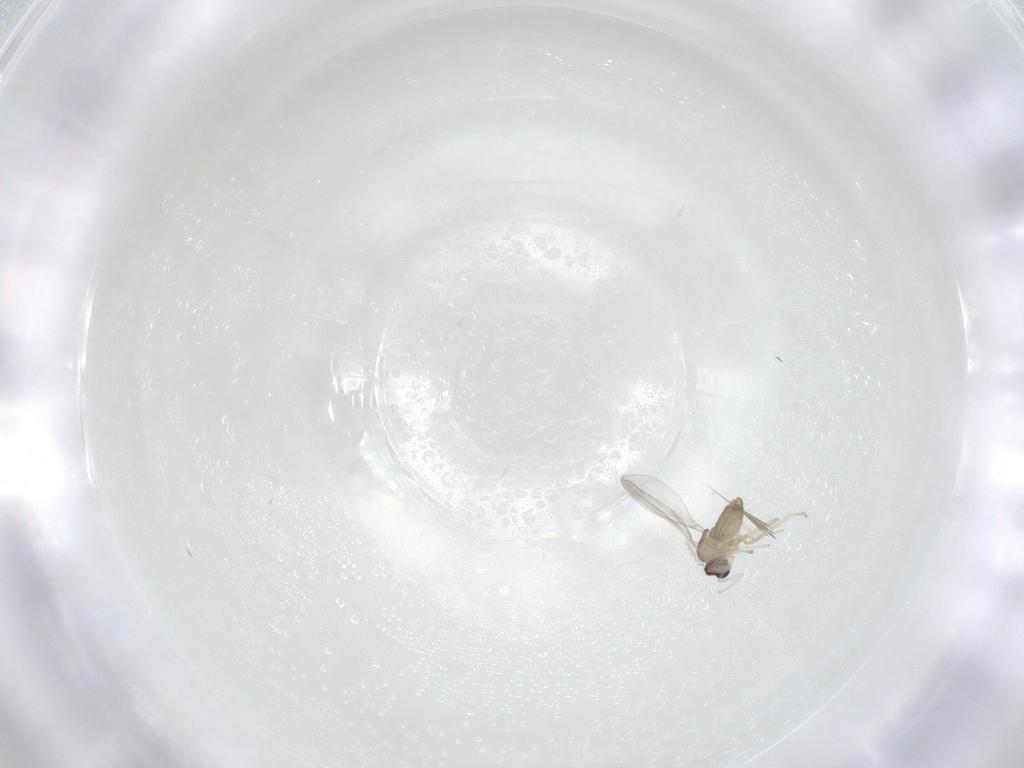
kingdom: Animalia
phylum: Arthropoda
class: Insecta
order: Diptera
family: Cecidomyiidae
